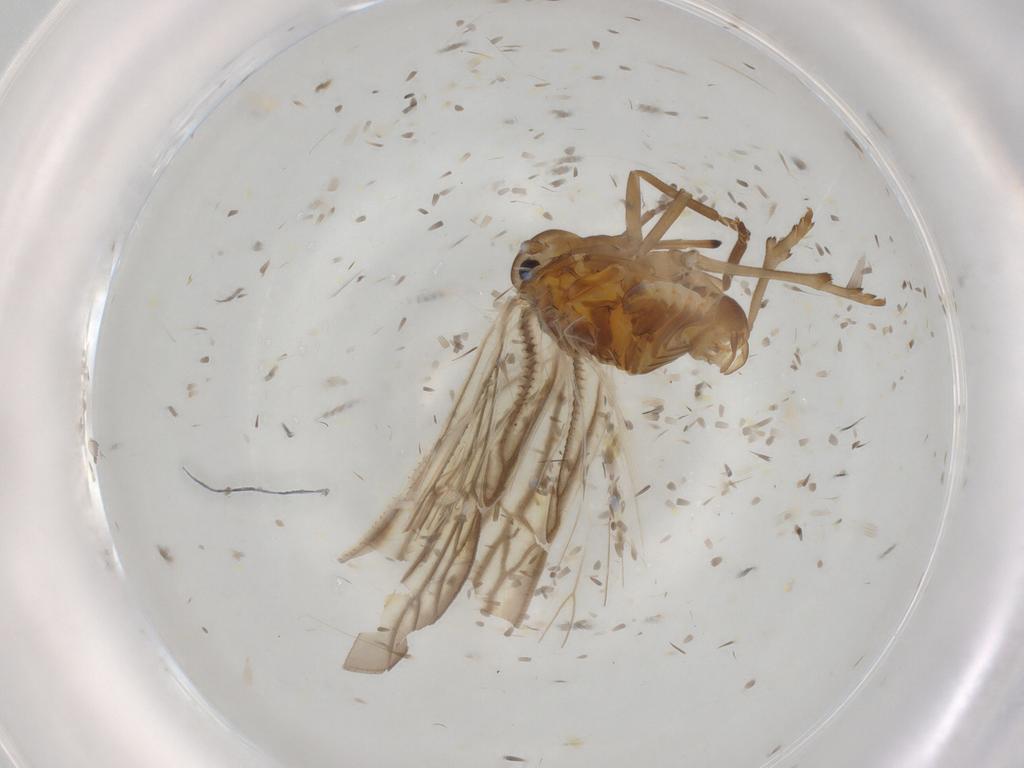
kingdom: Animalia
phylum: Arthropoda
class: Insecta
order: Hemiptera
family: Meenoplidae
